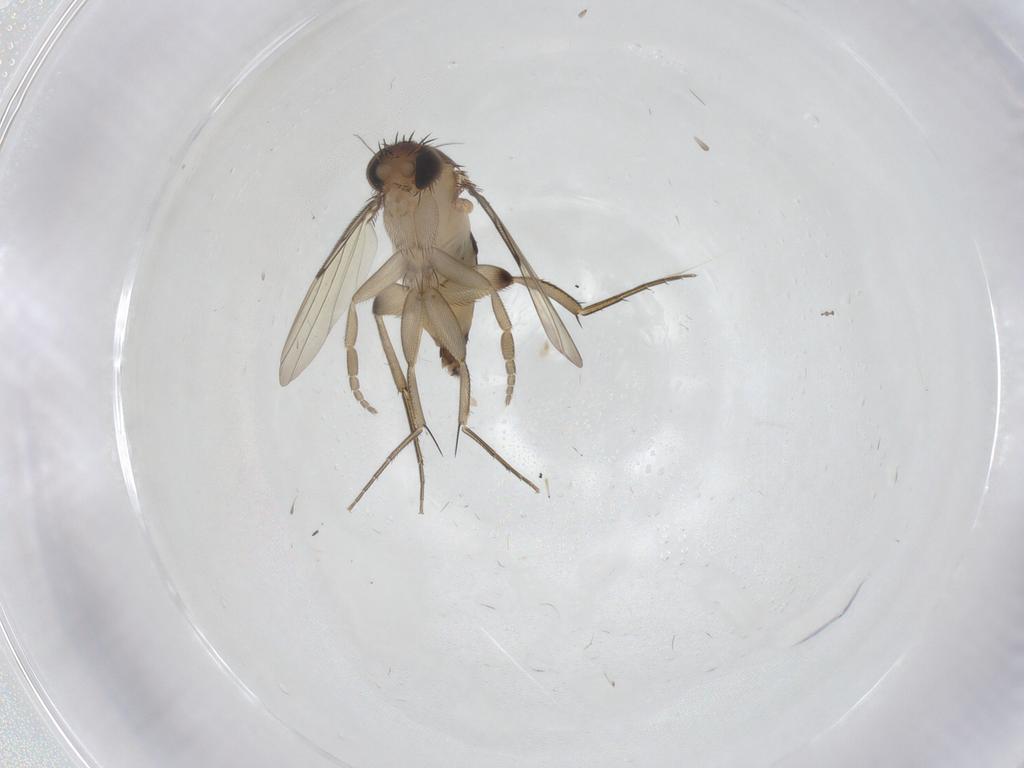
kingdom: Animalia
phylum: Arthropoda
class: Insecta
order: Diptera
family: Phoridae
